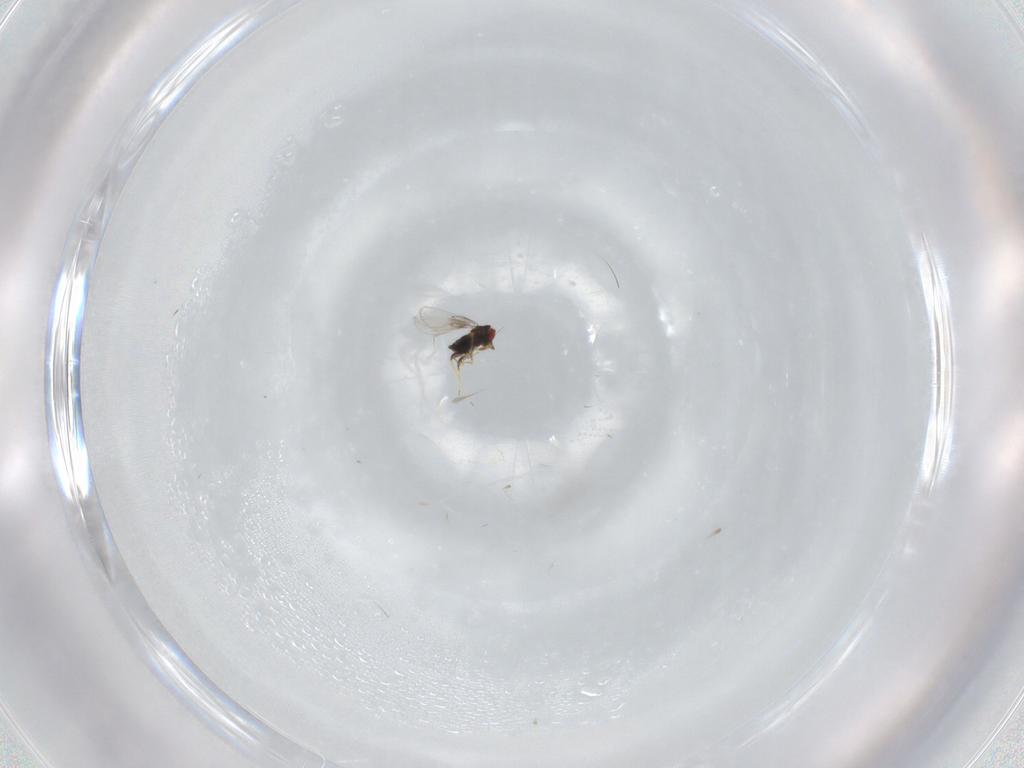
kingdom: Animalia
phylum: Arthropoda
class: Insecta
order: Hymenoptera
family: Trichogrammatidae
